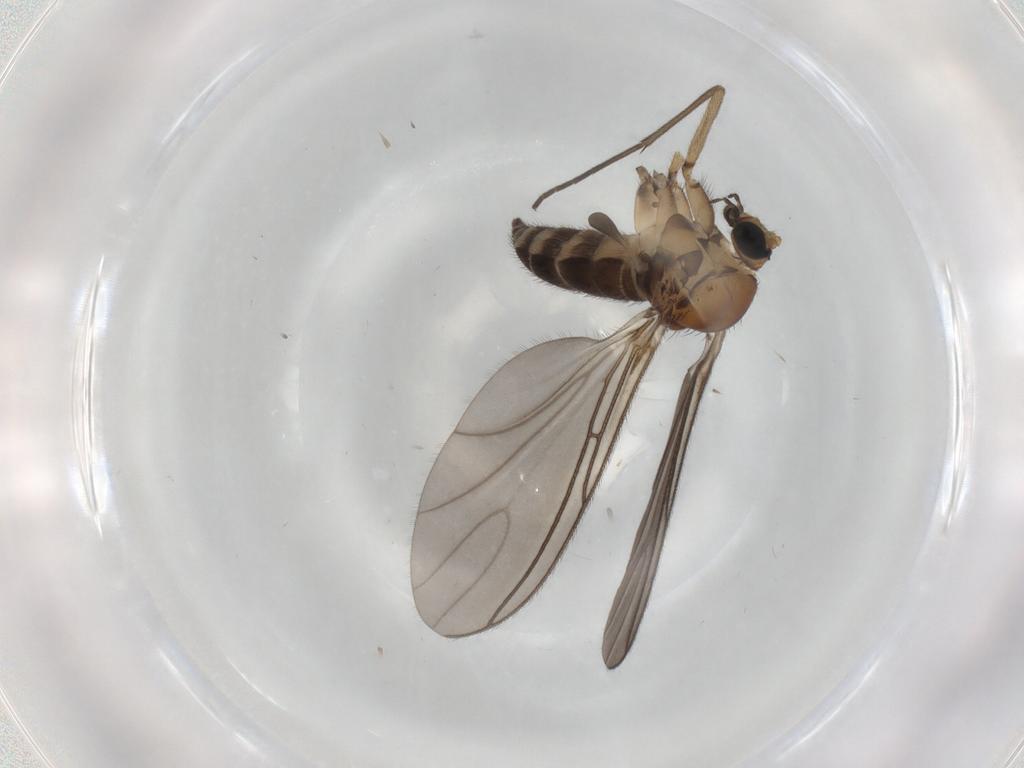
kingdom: Animalia
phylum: Arthropoda
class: Insecta
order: Diptera
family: Sciaridae
